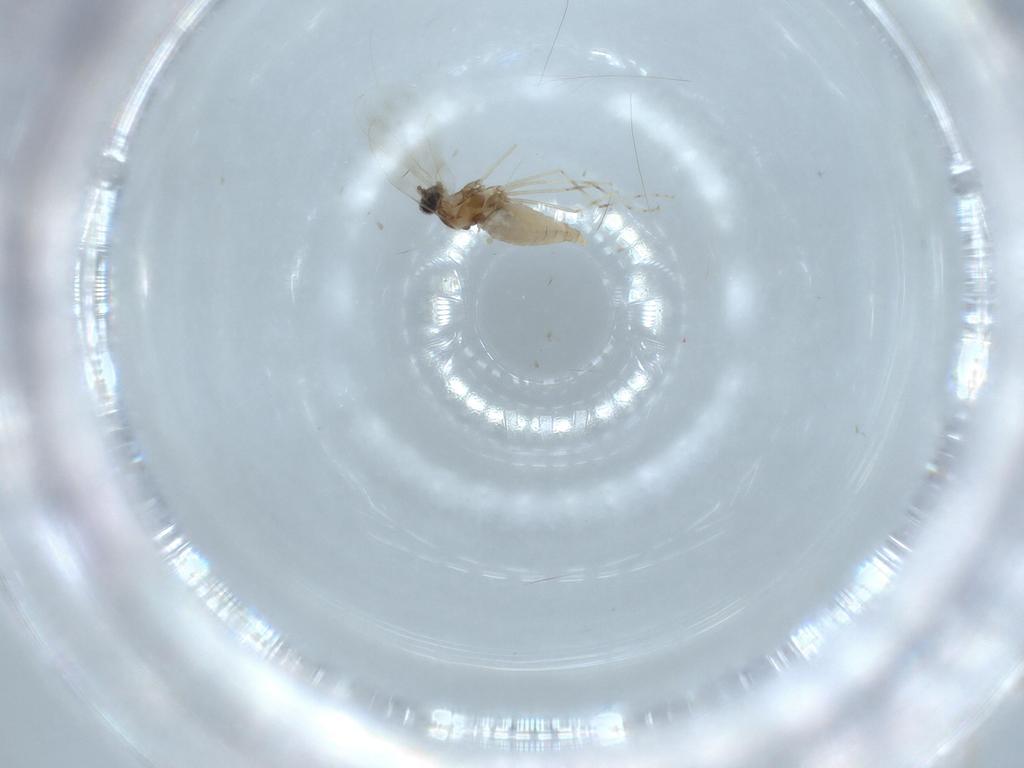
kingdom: Animalia
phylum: Arthropoda
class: Insecta
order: Diptera
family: Cecidomyiidae
